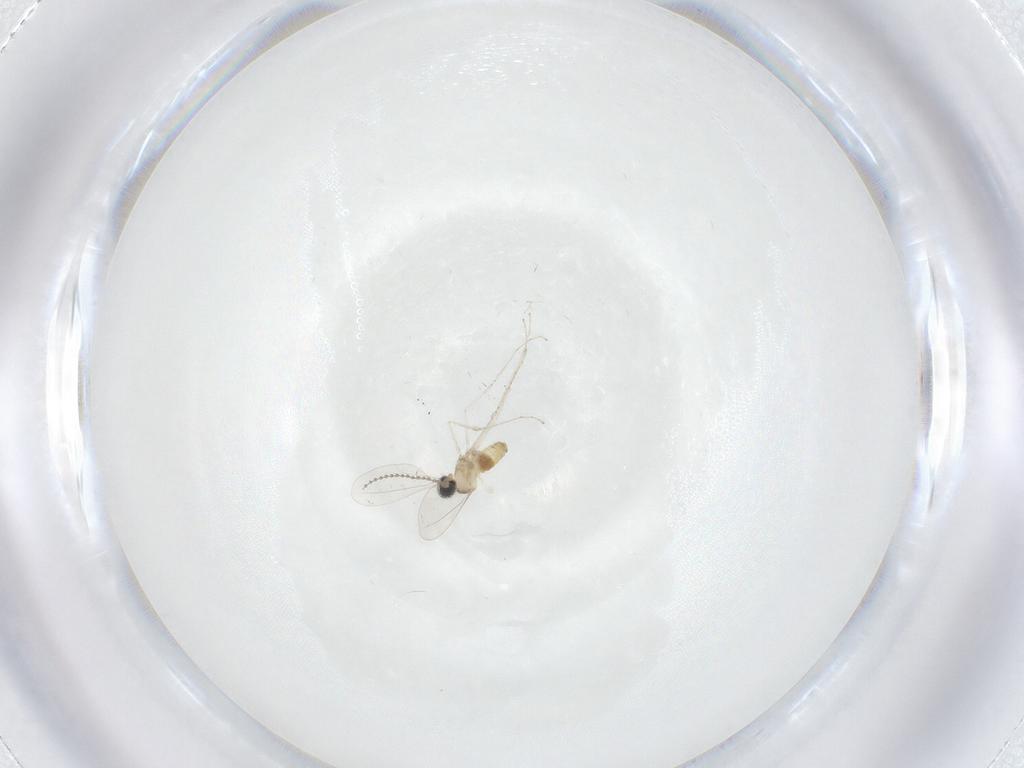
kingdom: Animalia
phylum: Arthropoda
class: Insecta
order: Diptera
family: Cecidomyiidae
